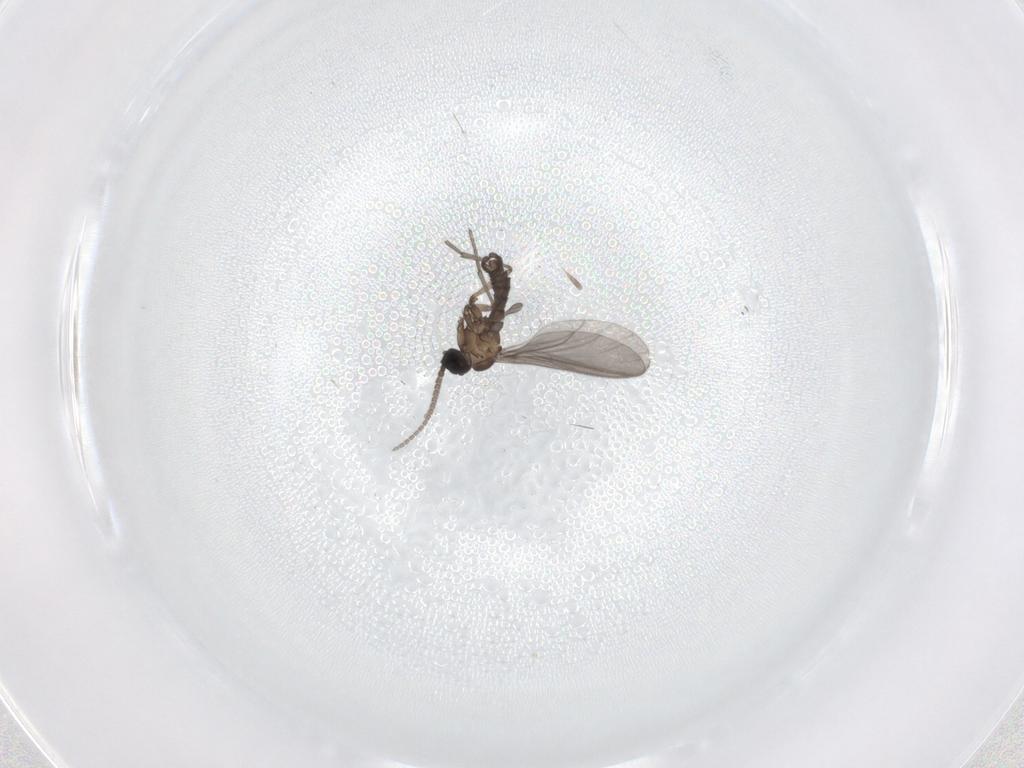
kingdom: Animalia
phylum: Arthropoda
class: Insecta
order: Diptera
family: Sciaridae
